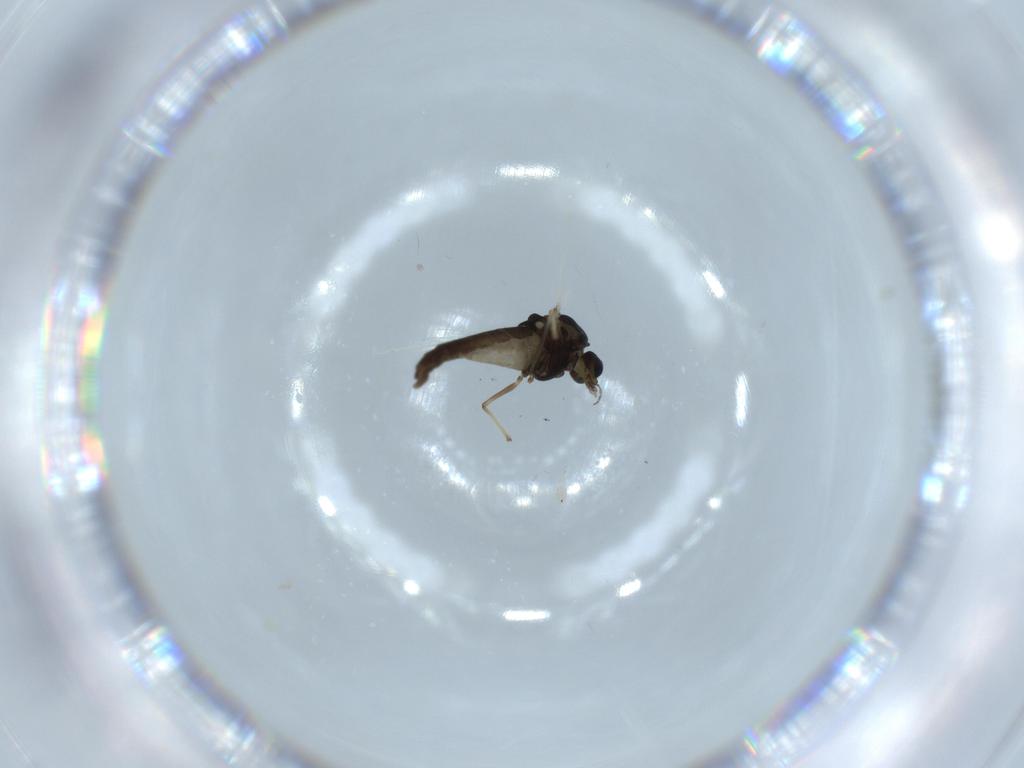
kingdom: Animalia
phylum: Arthropoda
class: Insecta
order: Diptera
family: Chironomidae
